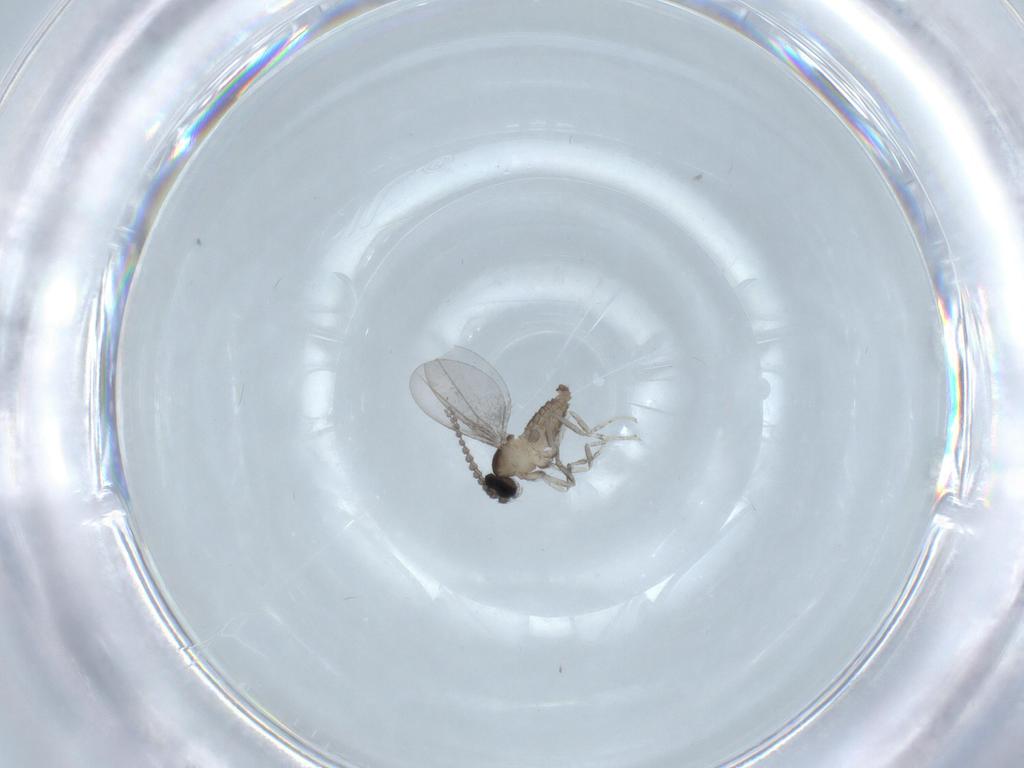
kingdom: Animalia
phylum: Arthropoda
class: Insecta
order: Diptera
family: Cecidomyiidae
